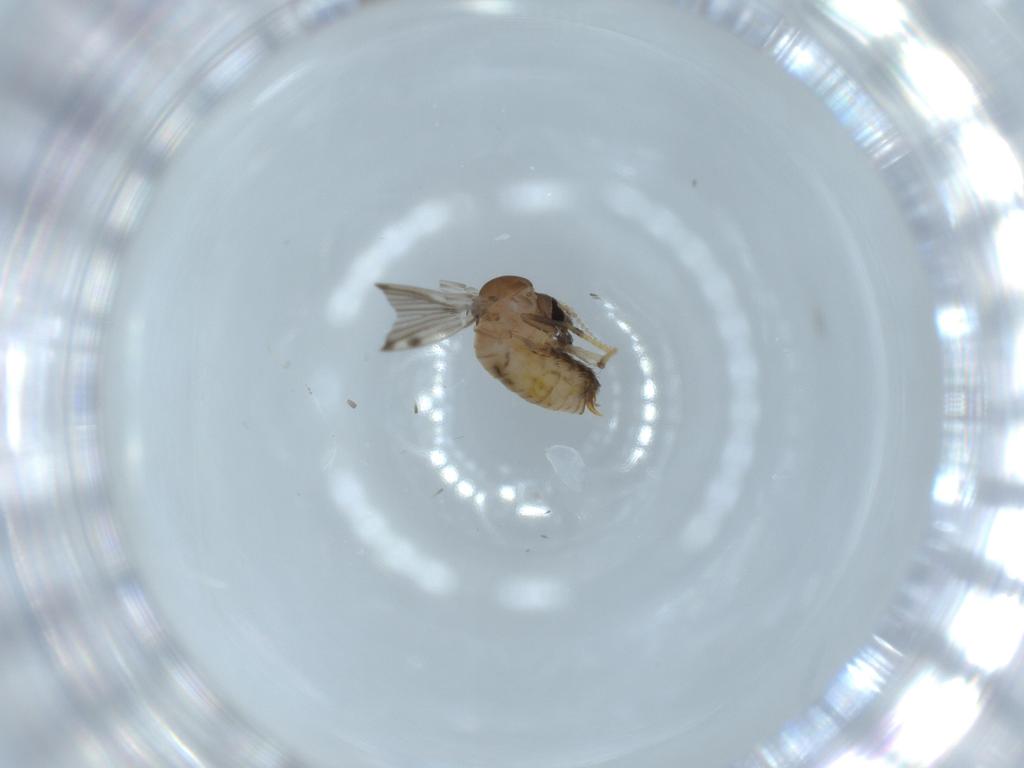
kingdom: Animalia
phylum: Arthropoda
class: Insecta
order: Diptera
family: Psychodidae
